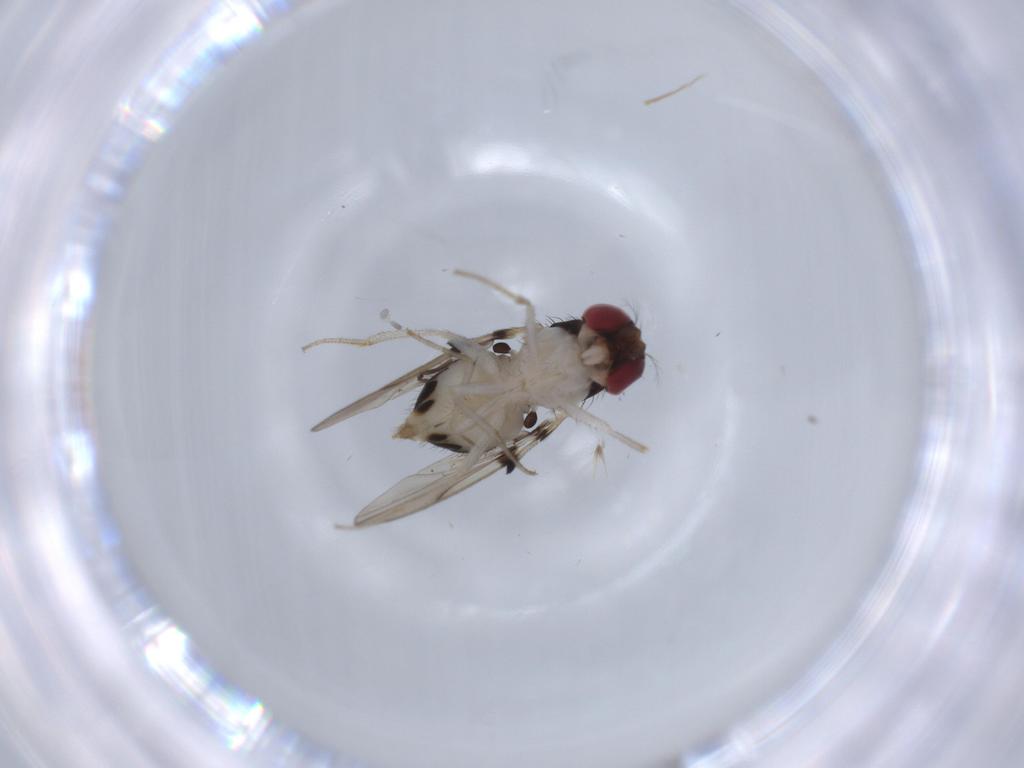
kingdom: Animalia
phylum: Arthropoda
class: Insecta
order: Diptera
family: Drosophilidae
